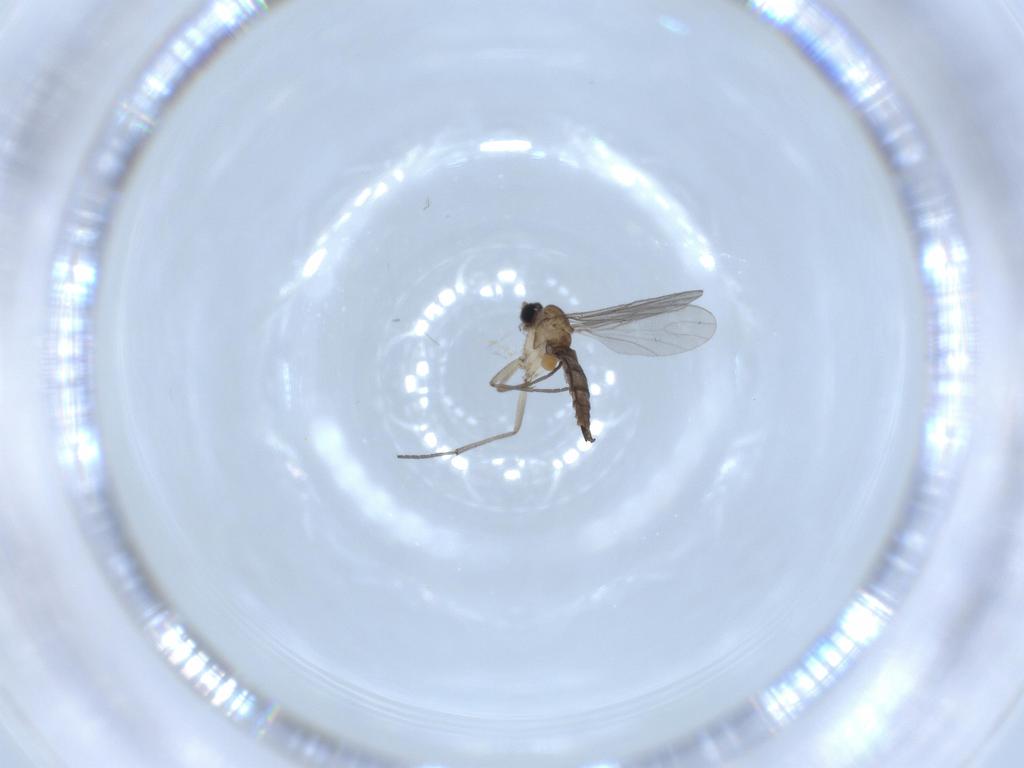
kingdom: Animalia
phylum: Arthropoda
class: Insecta
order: Diptera
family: Sciaridae
